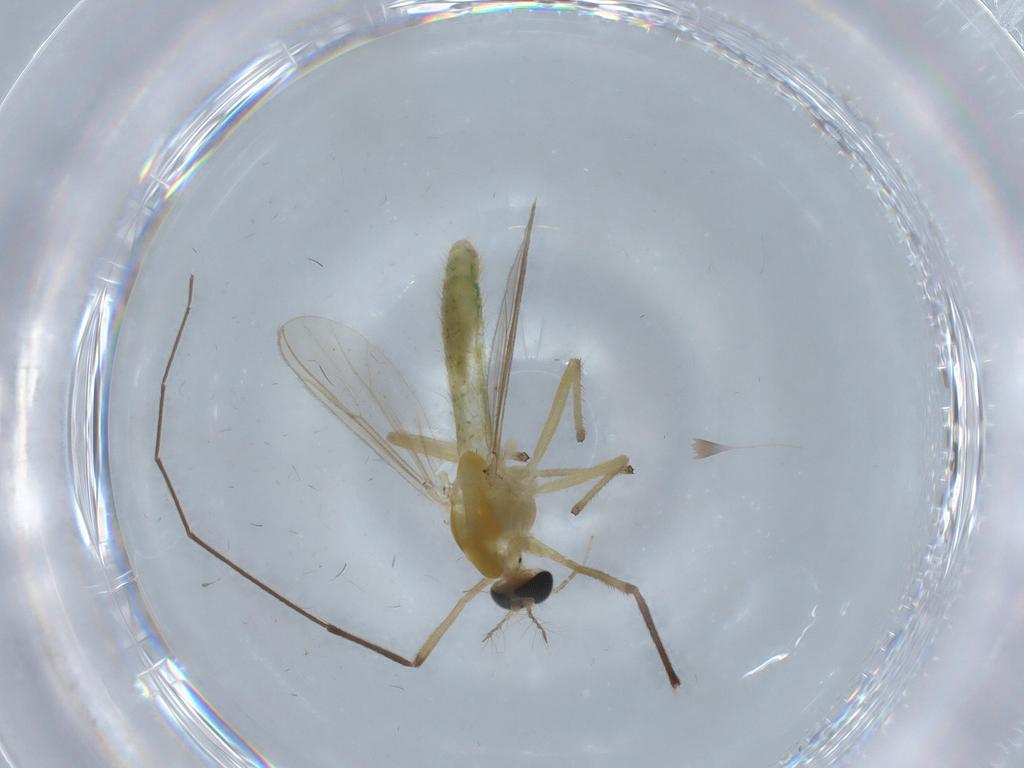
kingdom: Animalia
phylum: Arthropoda
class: Insecta
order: Diptera
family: Chironomidae
